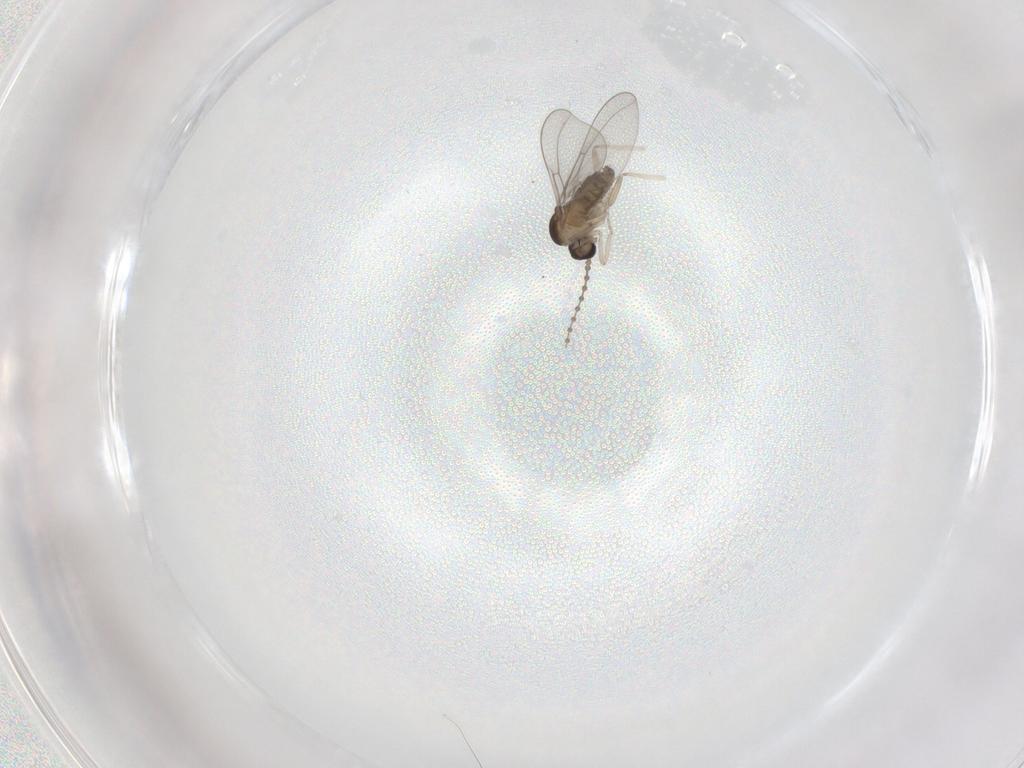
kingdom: Animalia
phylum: Arthropoda
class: Insecta
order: Diptera
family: Mycetophilidae
